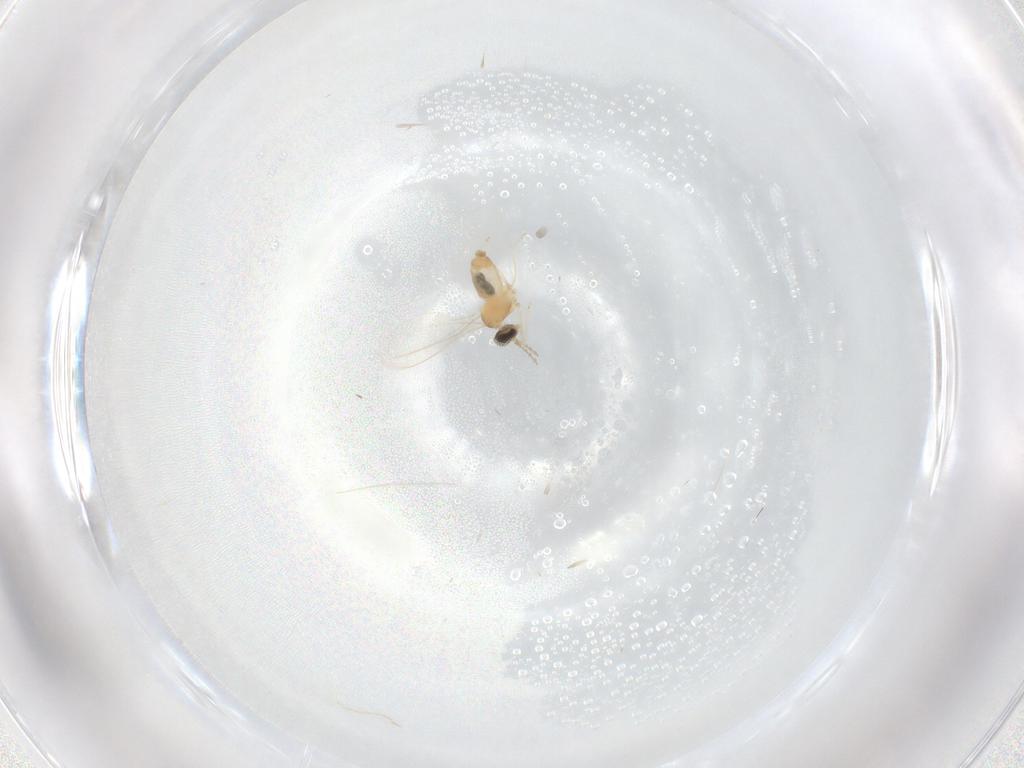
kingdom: Animalia
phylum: Arthropoda
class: Insecta
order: Diptera
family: Cecidomyiidae
